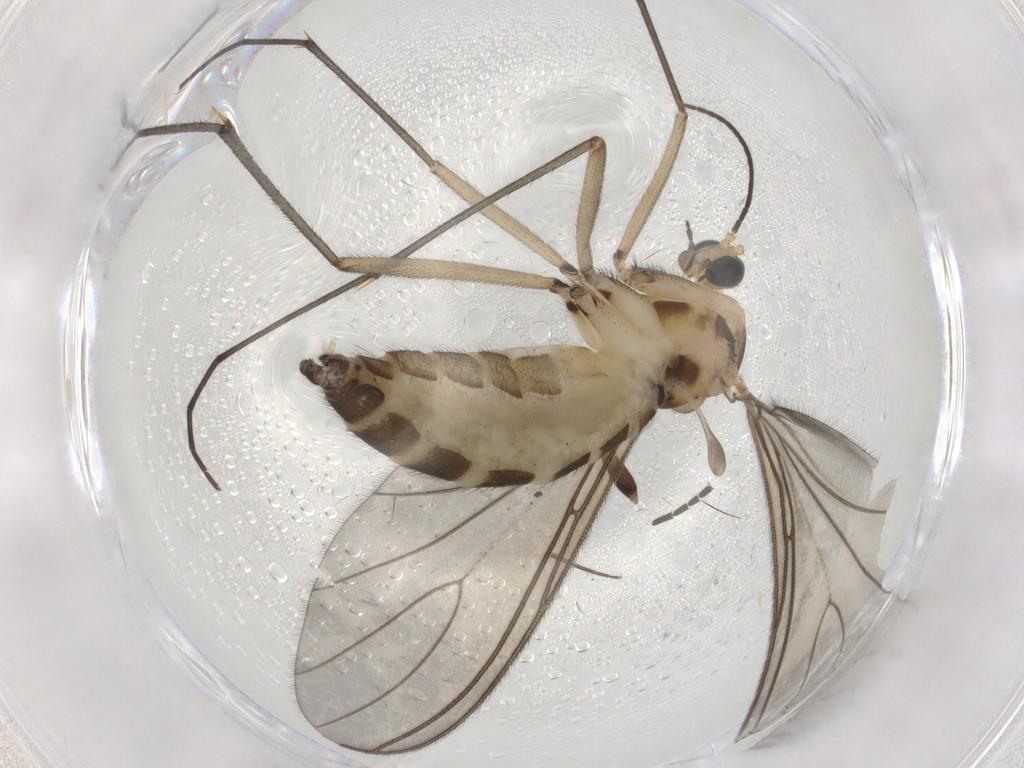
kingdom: Animalia
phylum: Arthropoda
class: Insecta
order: Diptera
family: Sciaridae
